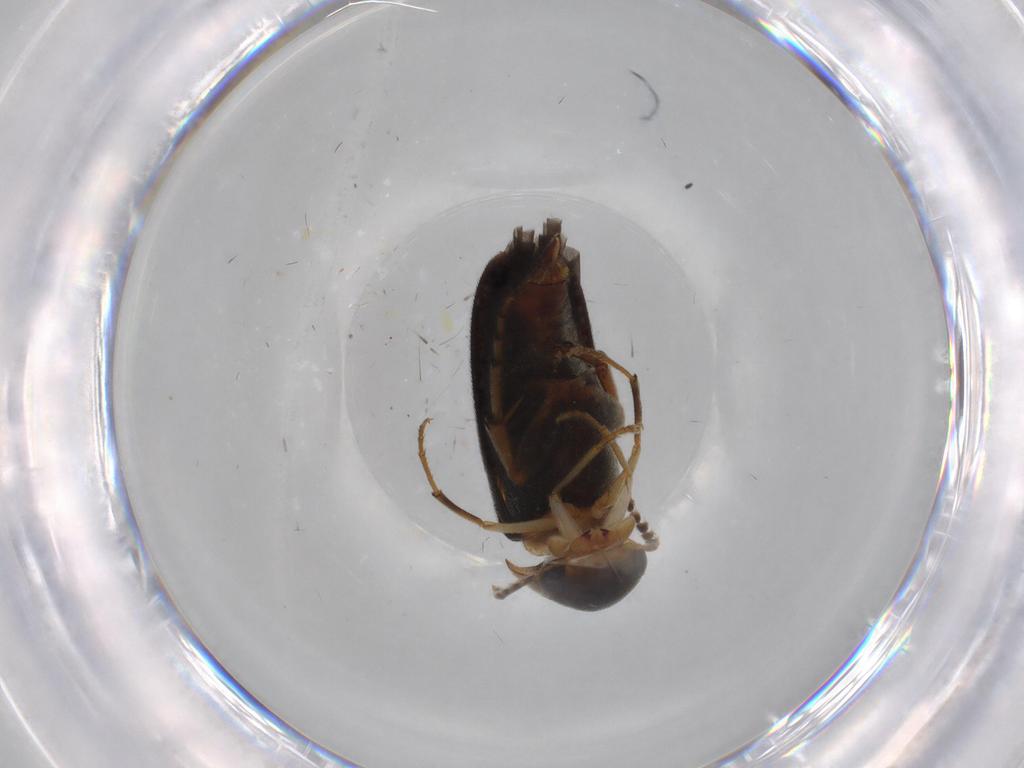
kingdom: Animalia
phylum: Arthropoda
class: Insecta
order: Coleoptera
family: Mordellidae
